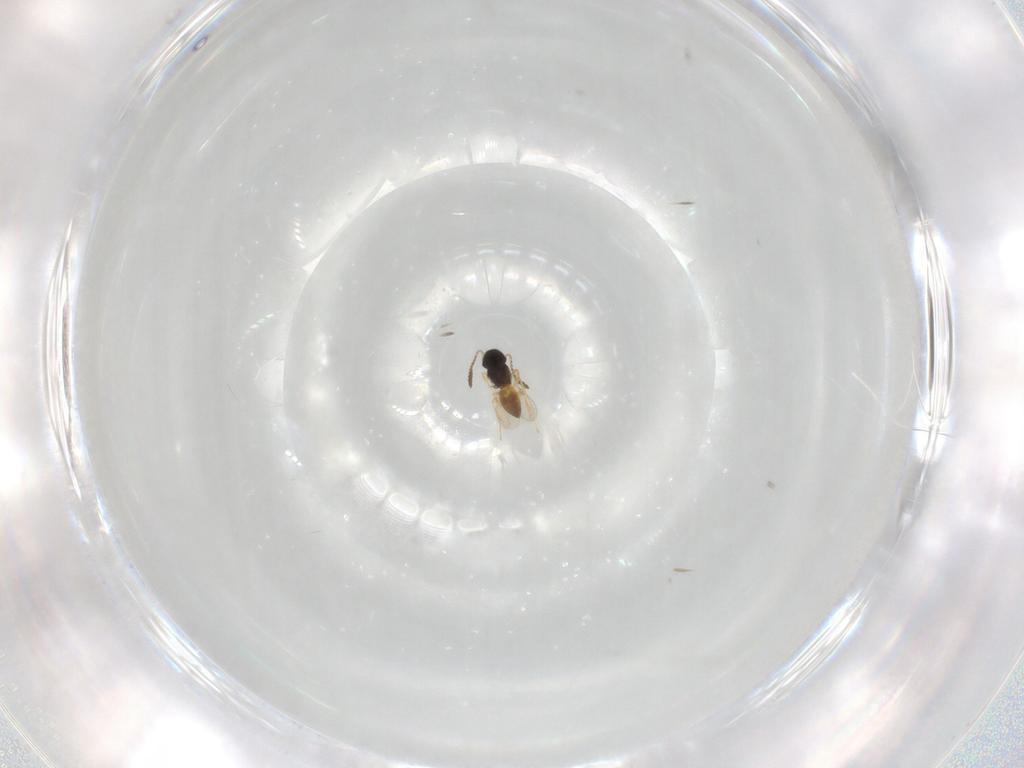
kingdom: Animalia
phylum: Arthropoda
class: Insecta
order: Hymenoptera
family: Scelionidae
